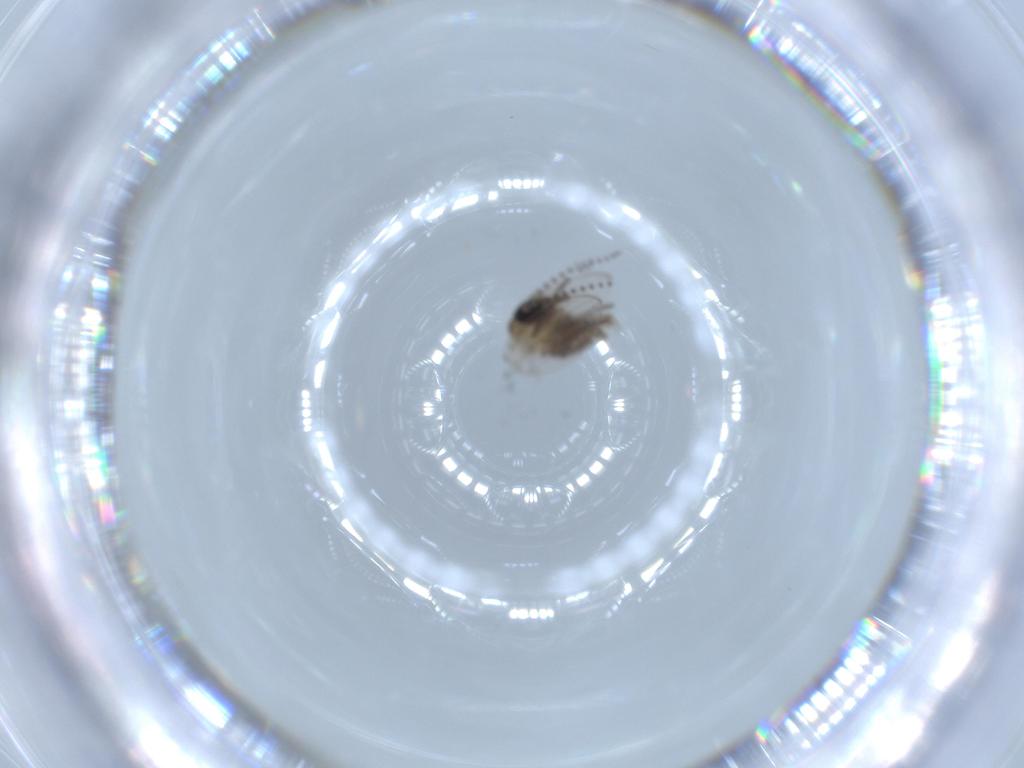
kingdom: Animalia
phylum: Arthropoda
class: Insecta
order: Diptera
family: Psychodidae
